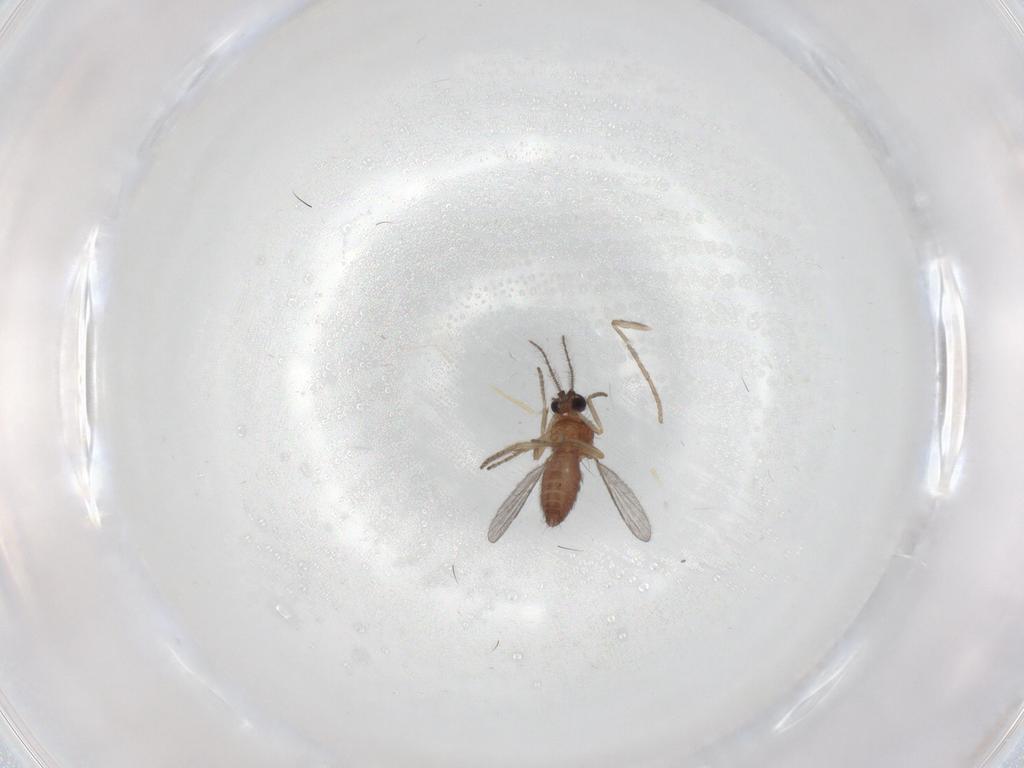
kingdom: Animalia
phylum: Arthropoda
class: Insecta
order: Diptera
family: Ceratopogonidae
